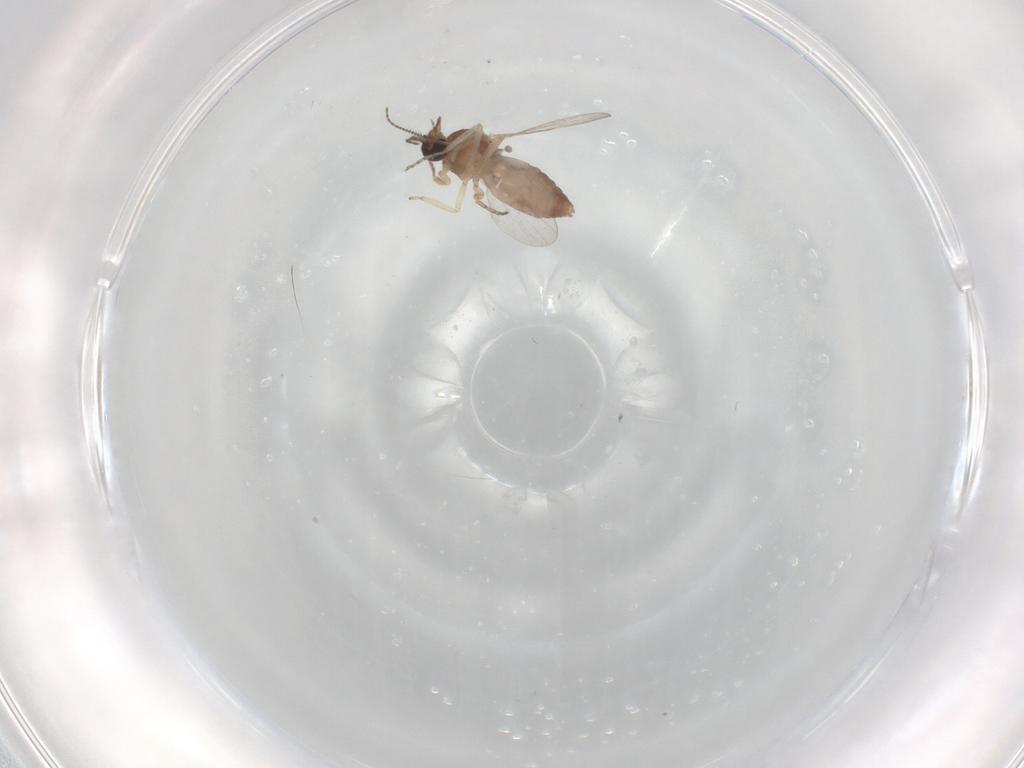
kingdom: Animalia
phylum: Arthropoda
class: Insecta
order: Diptera
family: Ceratopogonidae
